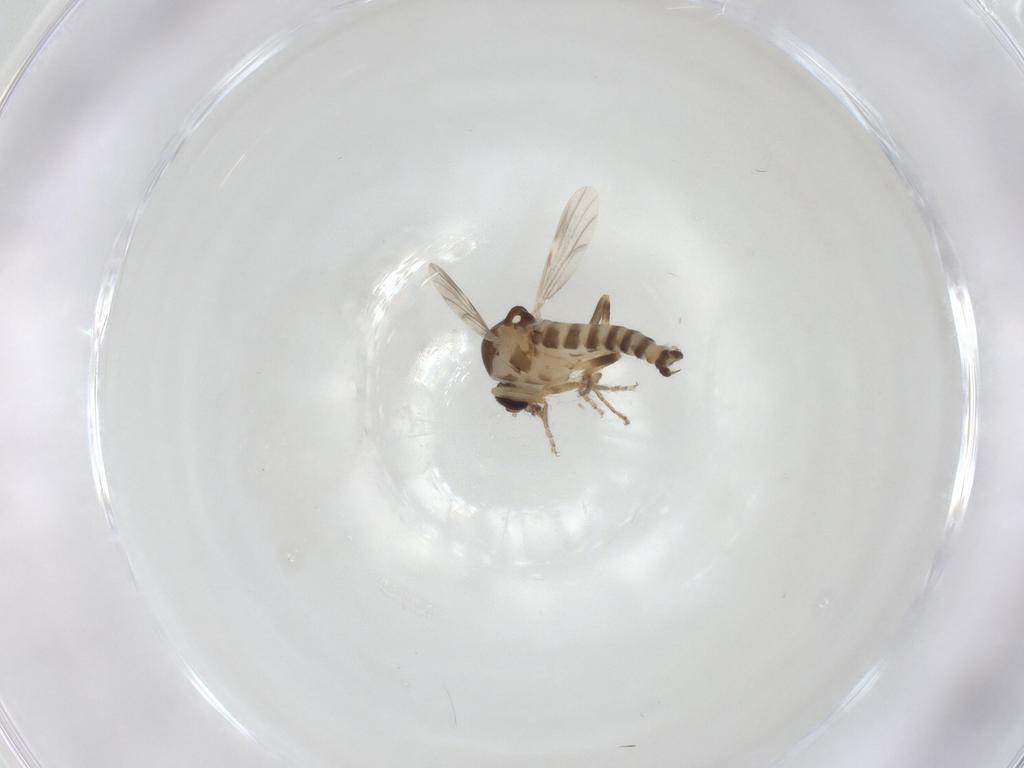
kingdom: Animalia
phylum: Arthropoda
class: Insecta
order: Diptera
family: Ceratopogonidae
